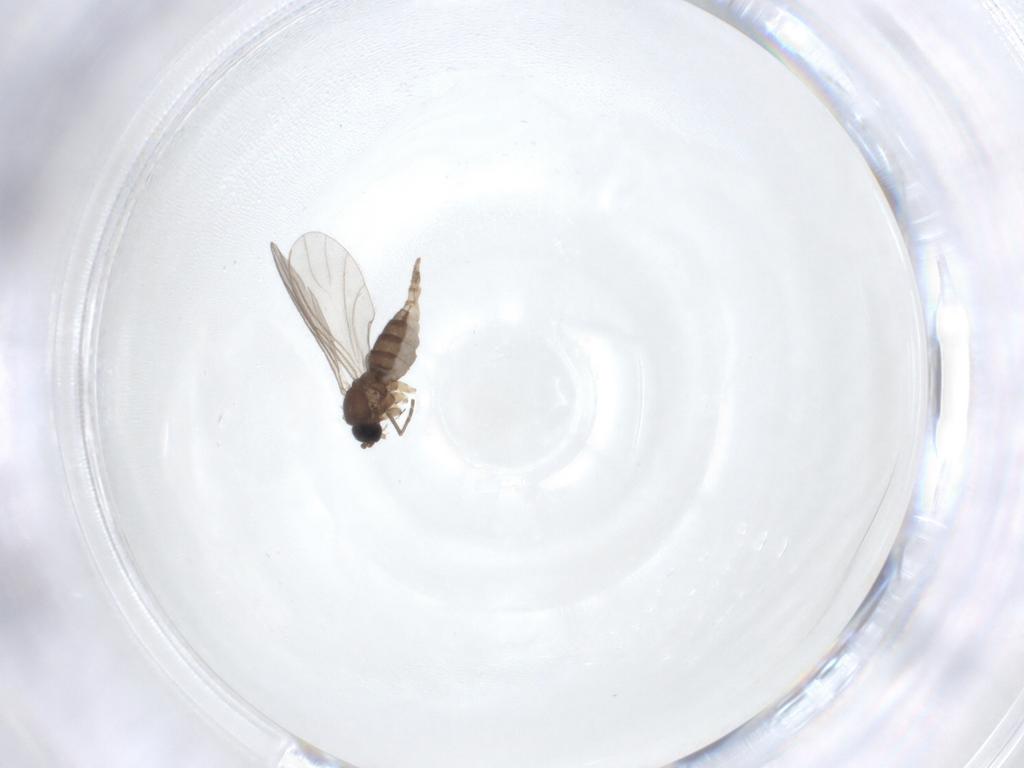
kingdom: Animalia
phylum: Arthropoda
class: Insecta
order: Diptera
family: Sciaridae
